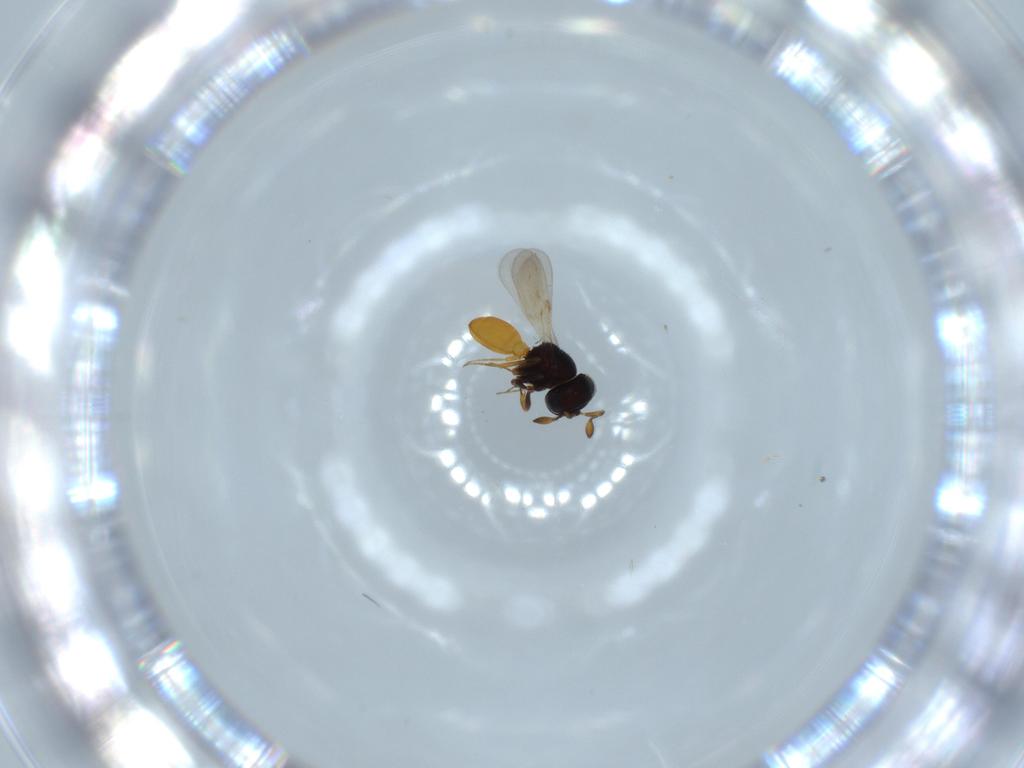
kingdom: Animalia
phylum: Arthropoda
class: Insecta
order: Hymenoptera
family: Scelionidae
